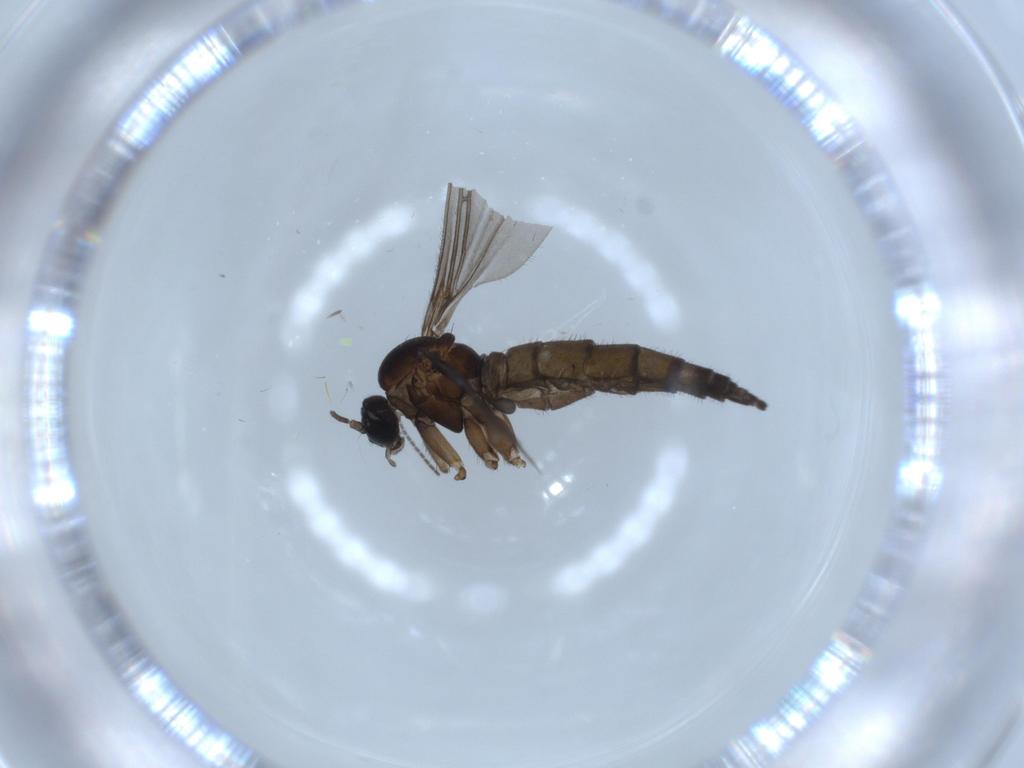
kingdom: Animalia
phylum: Arthropoda
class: Insecta
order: Diptera
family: Sciaridae
